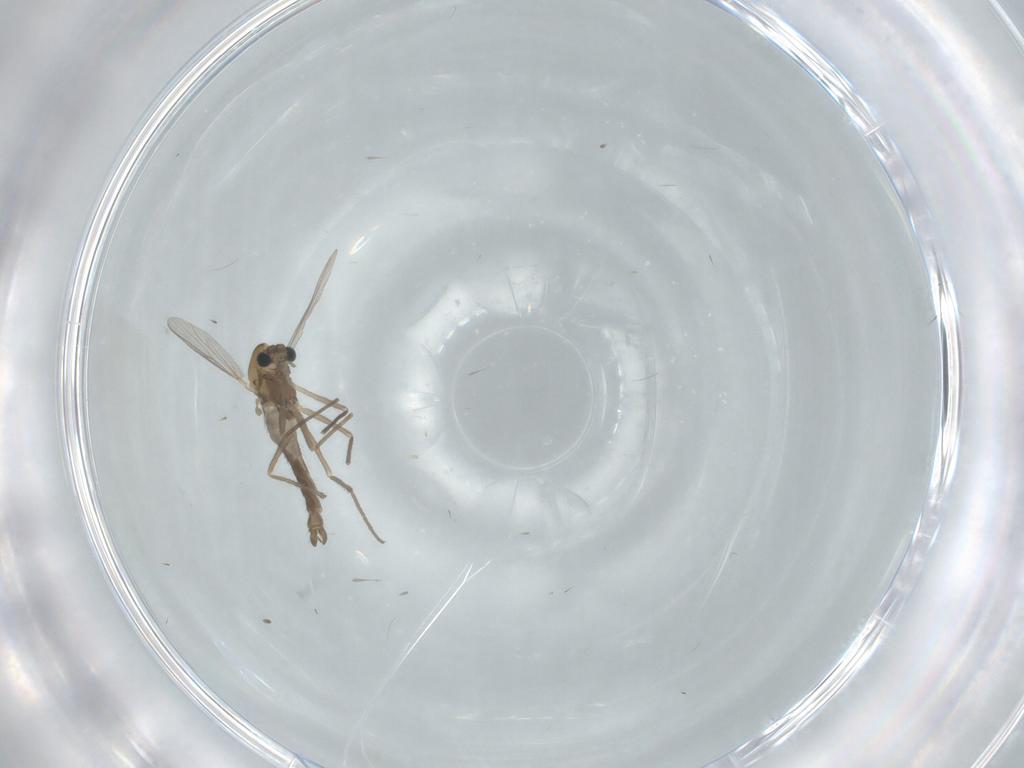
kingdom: Animalia
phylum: Arthropoda
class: Insecta
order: Diptera
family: Chironomidae
